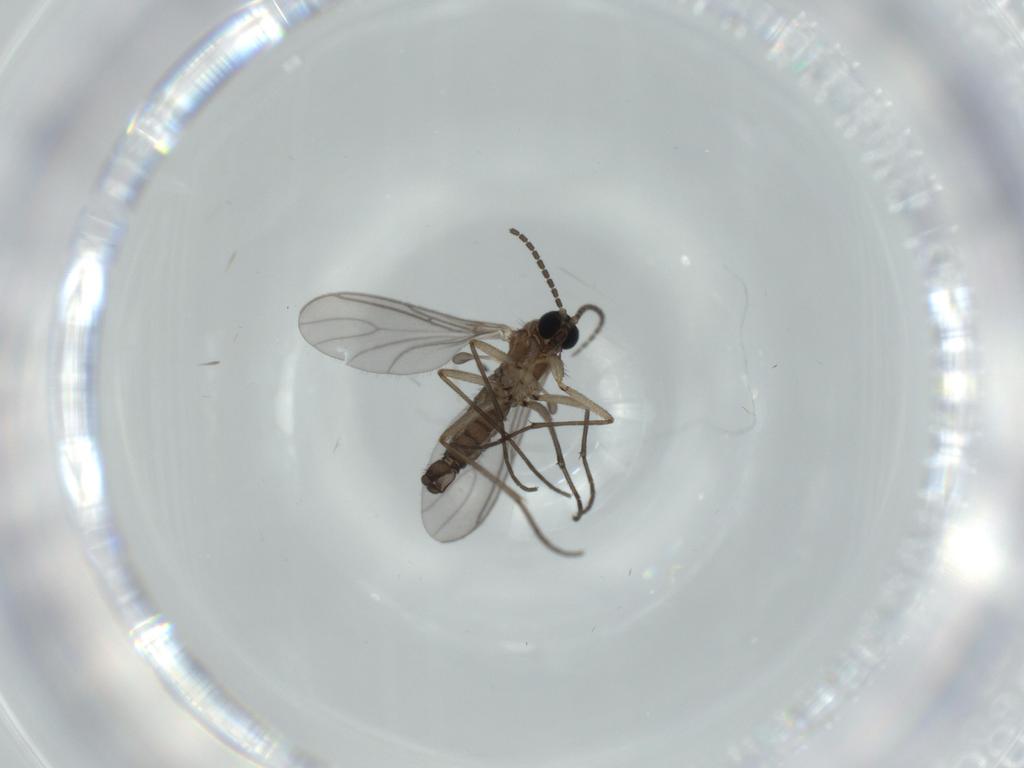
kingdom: Animalia
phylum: Arthropoda
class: Insecta
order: Diptera
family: Sciaridae
